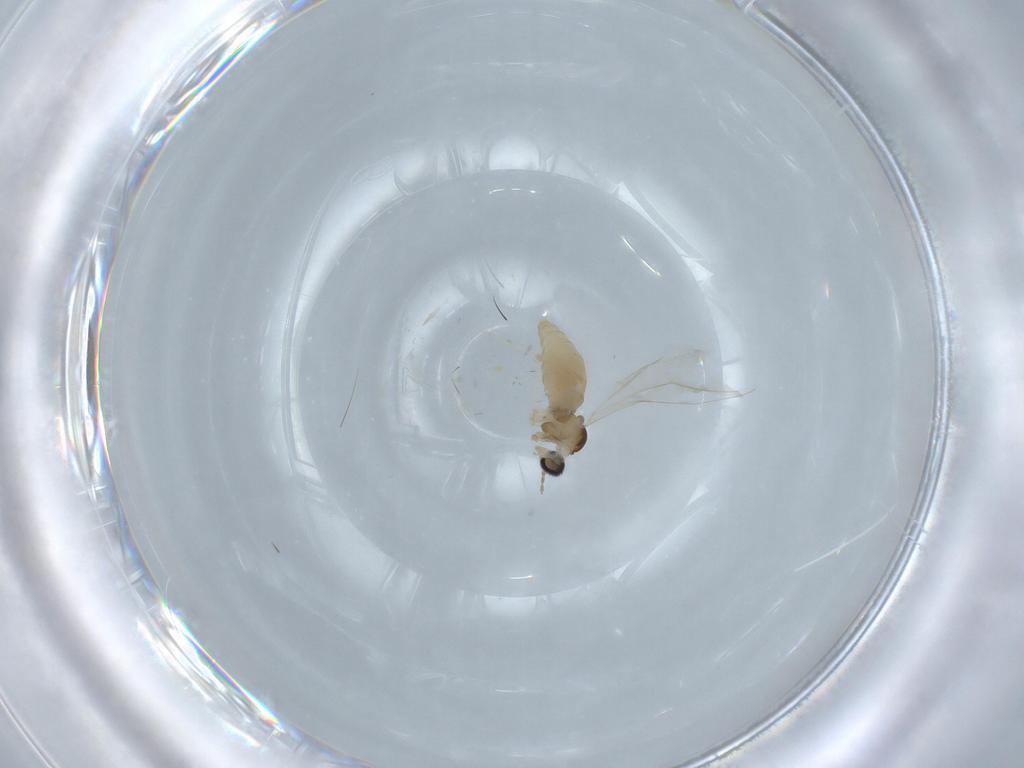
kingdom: Animalia
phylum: Arthropoda
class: Insecta
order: Diptera
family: Cecidomyiidae
